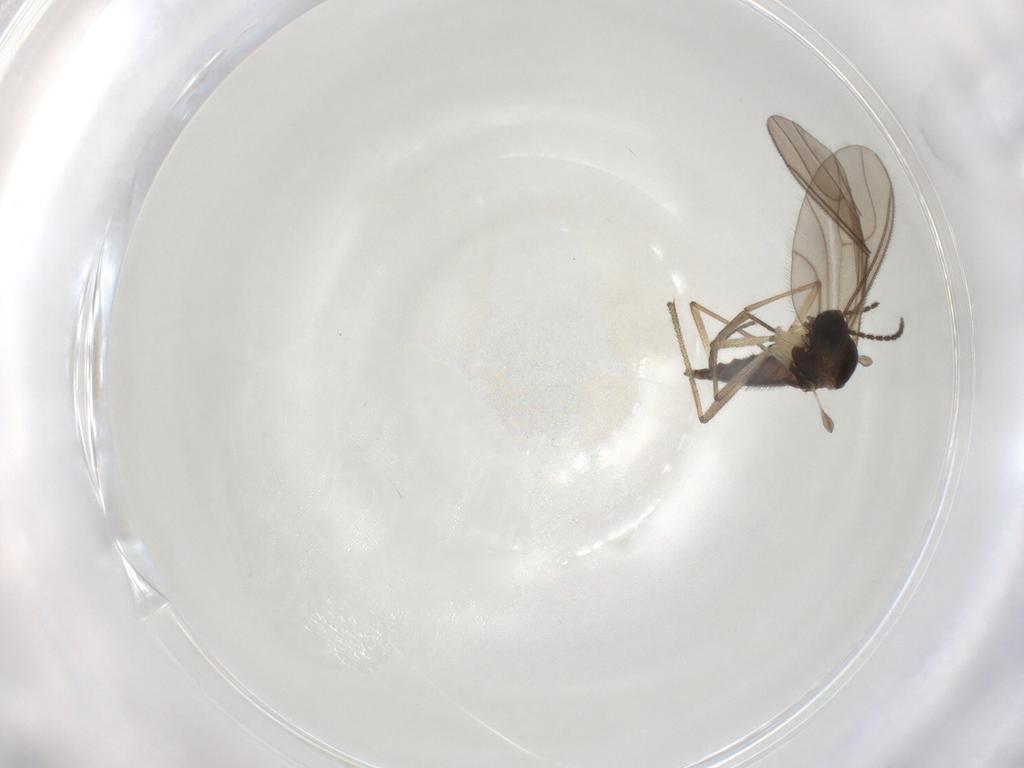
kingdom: Animalia
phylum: Arthropoda
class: Insecta
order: Diptera
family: Sciaridae
